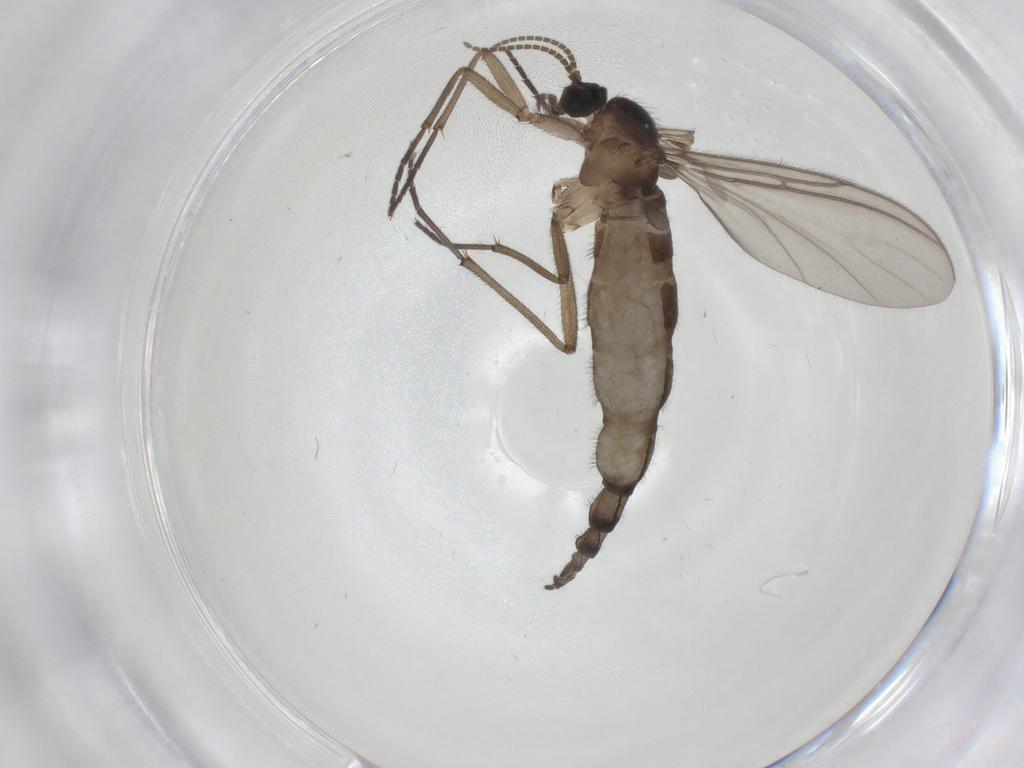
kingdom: Animalia
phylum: Arthropoda
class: Insecta
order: Diptera
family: Limoniidae
